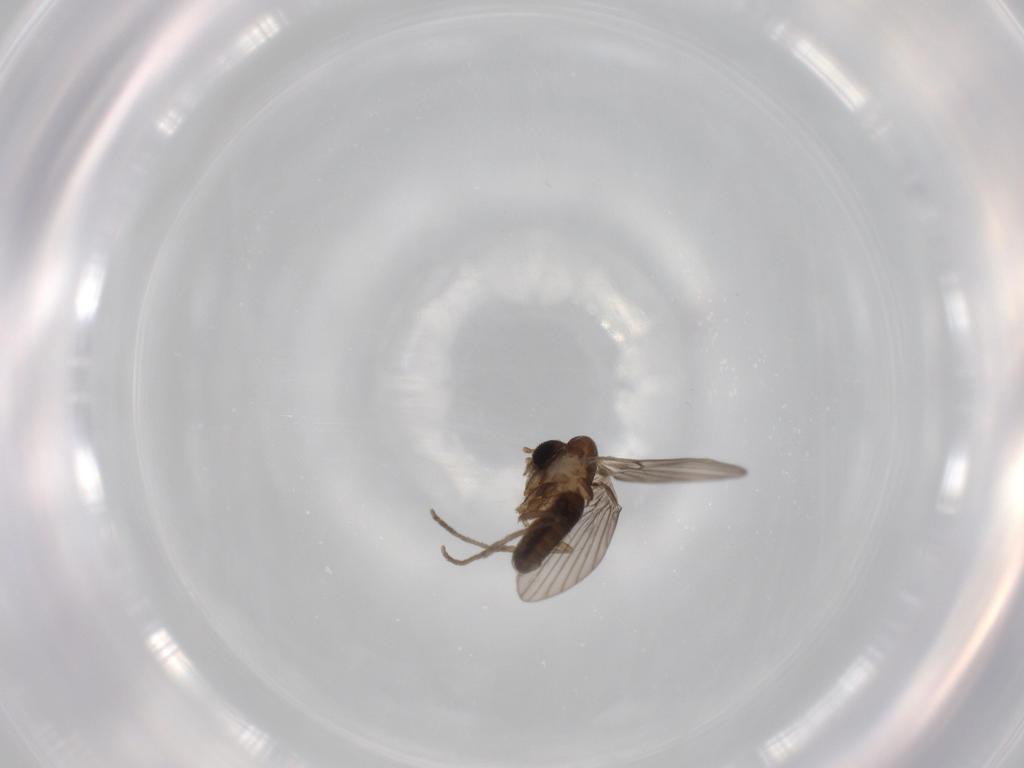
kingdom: Animalia
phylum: Arthropoda
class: Insecta
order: Diptera
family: Psychodidae
